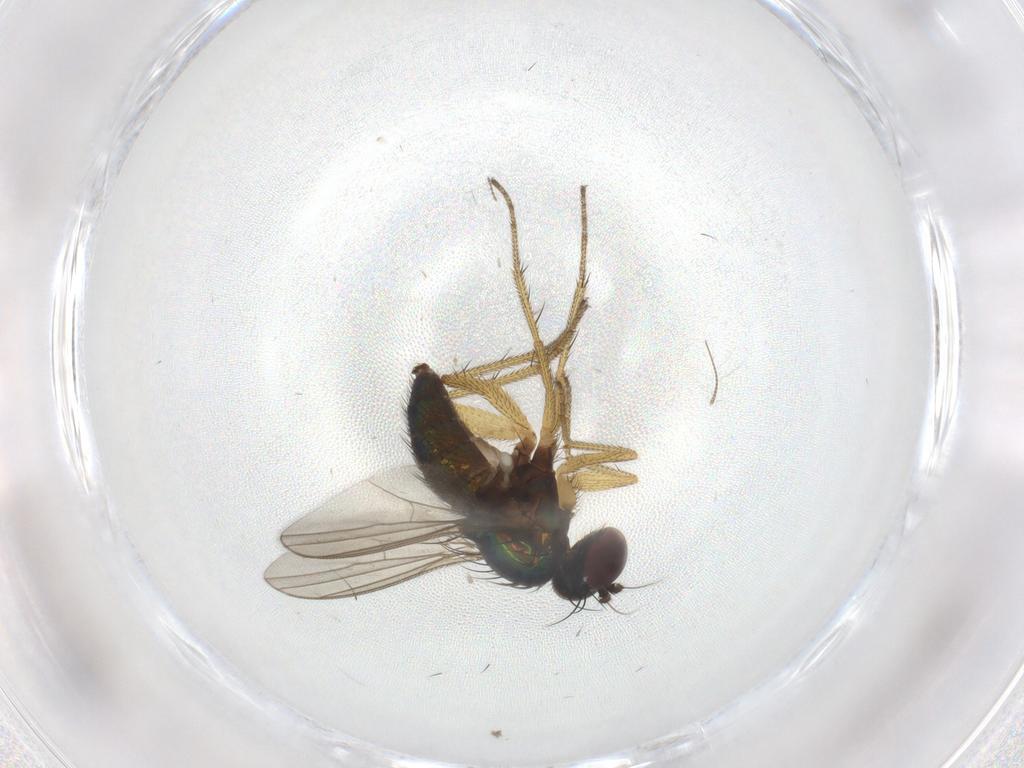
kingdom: Animalia
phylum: Arthropoda
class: Insecta
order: Diptera
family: Dolichopodidae
